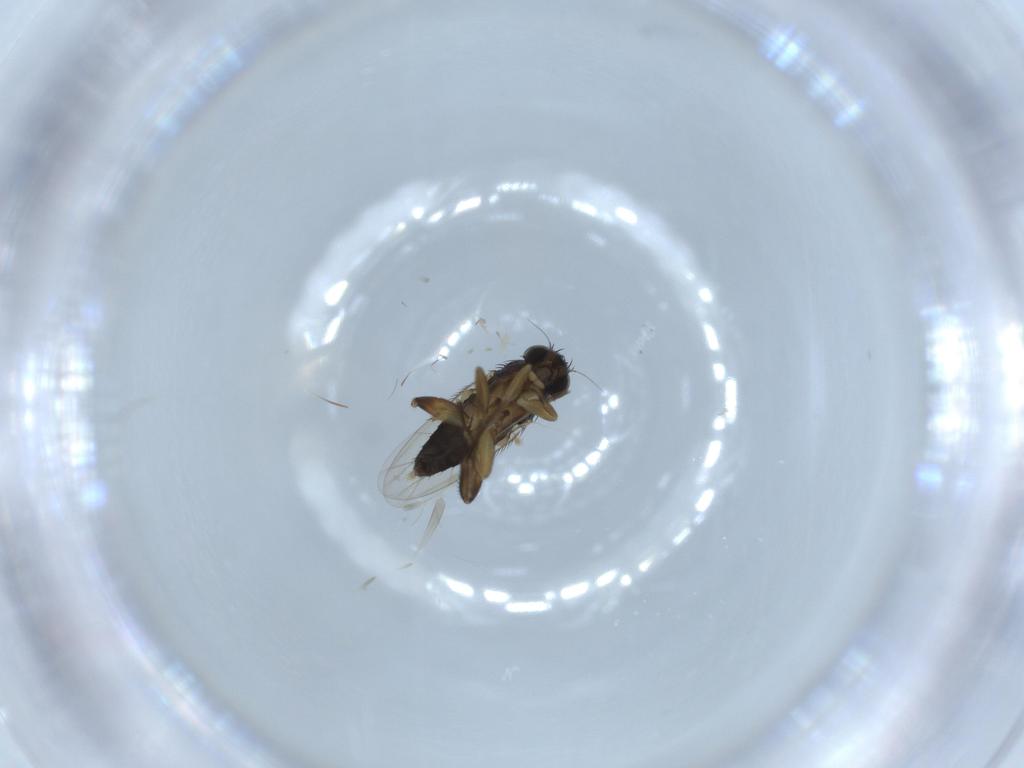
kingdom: Animalia
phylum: Arthropoda
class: Insecta
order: Diptera
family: Phoridae
